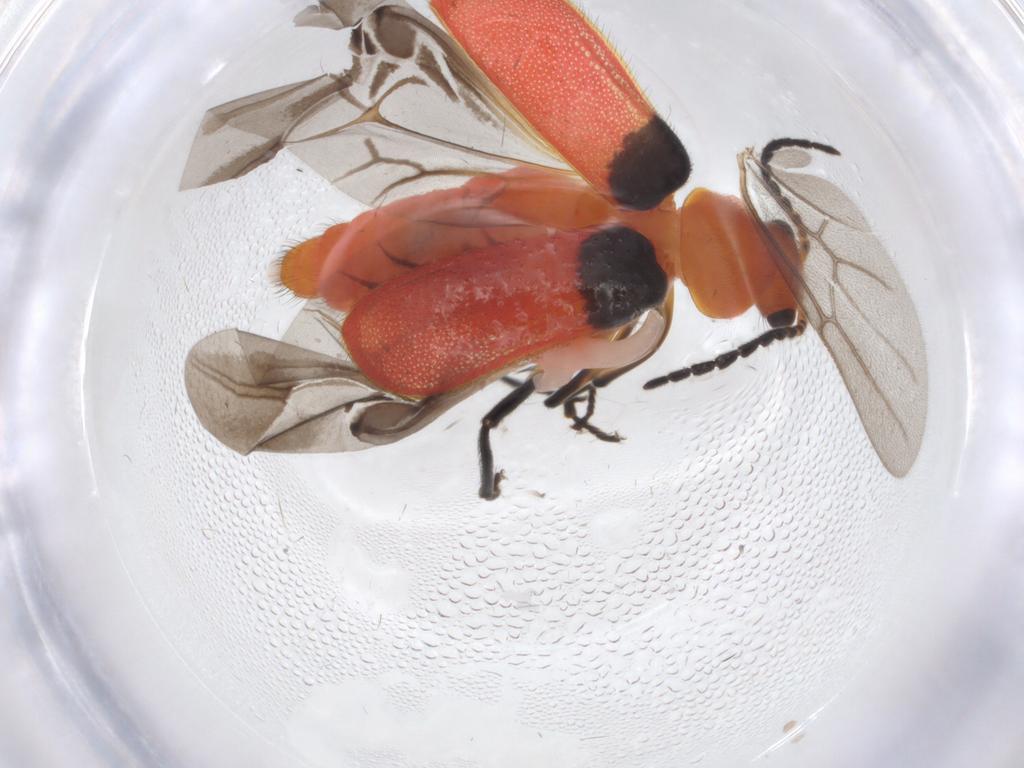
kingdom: Animalia
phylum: Arthropoda
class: Insecta
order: Coleoptera
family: Melyridae
